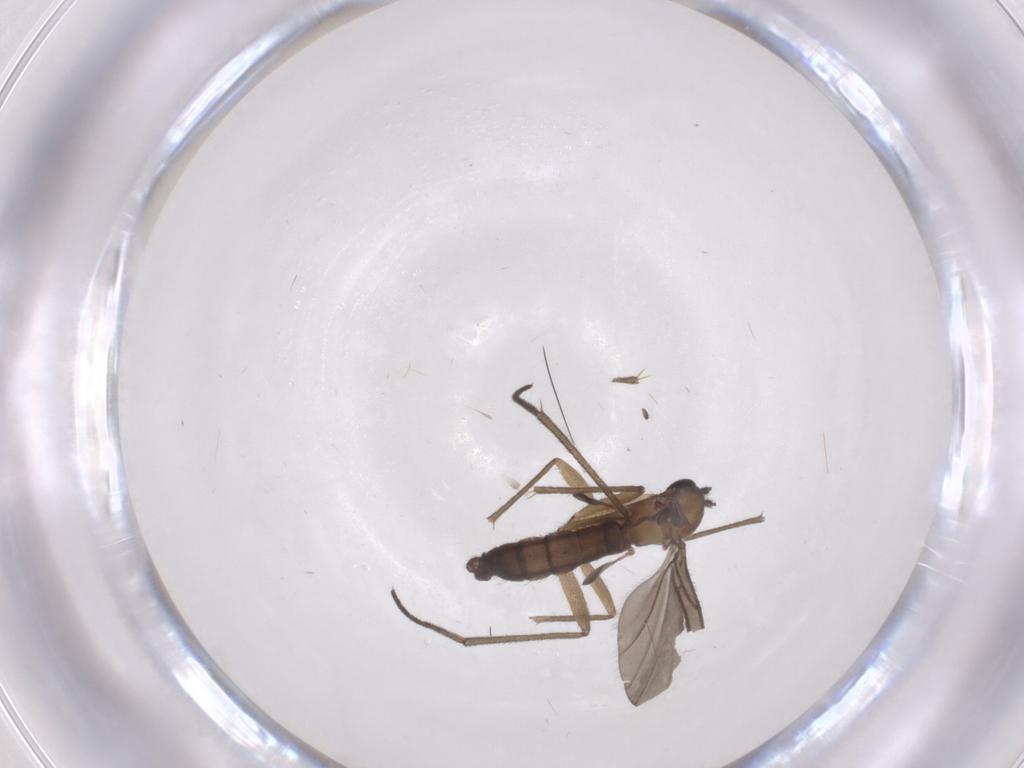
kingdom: Animalia
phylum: Arthropoda
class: Insecta
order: Diptera
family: Sciaridae
